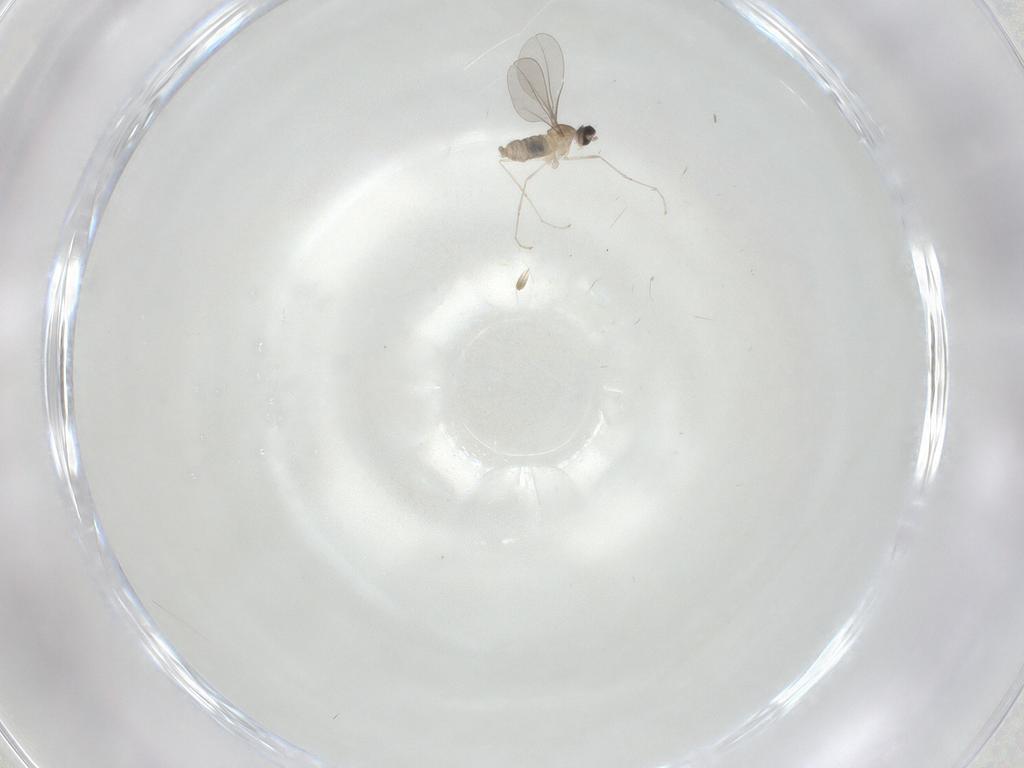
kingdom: Animalia
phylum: Arthropoda
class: Insecta
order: Diptera
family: Cecidomyiidae
